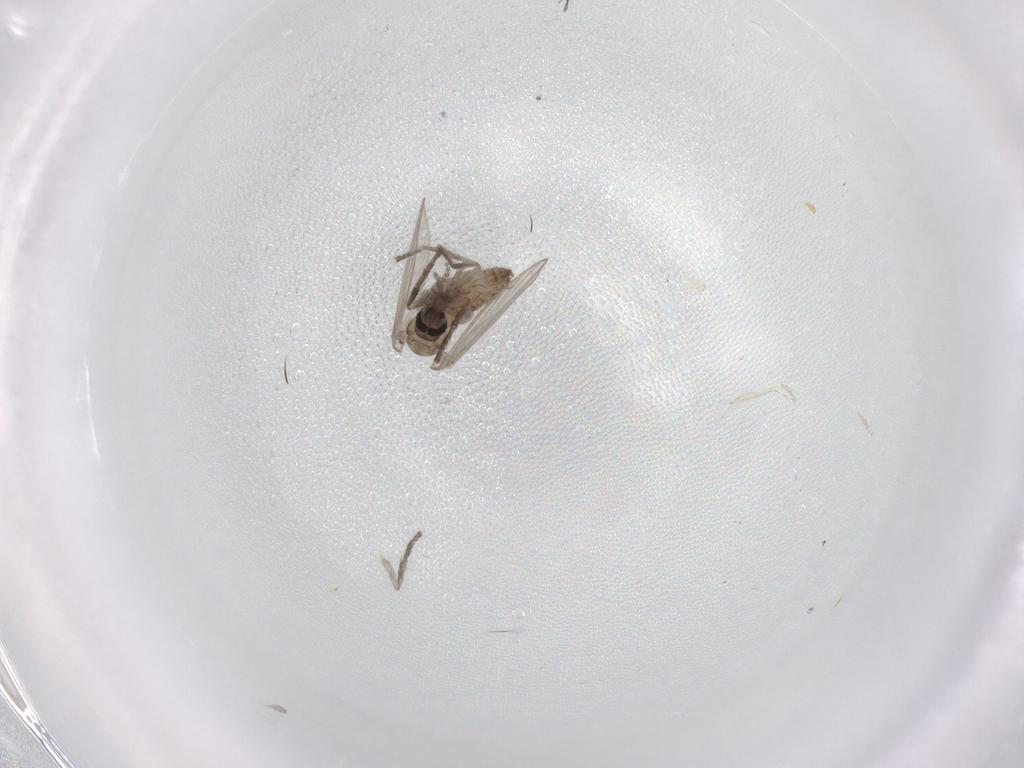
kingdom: Animalia
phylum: Arthropoda
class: Insecta
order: Diptera
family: Psychodidae
